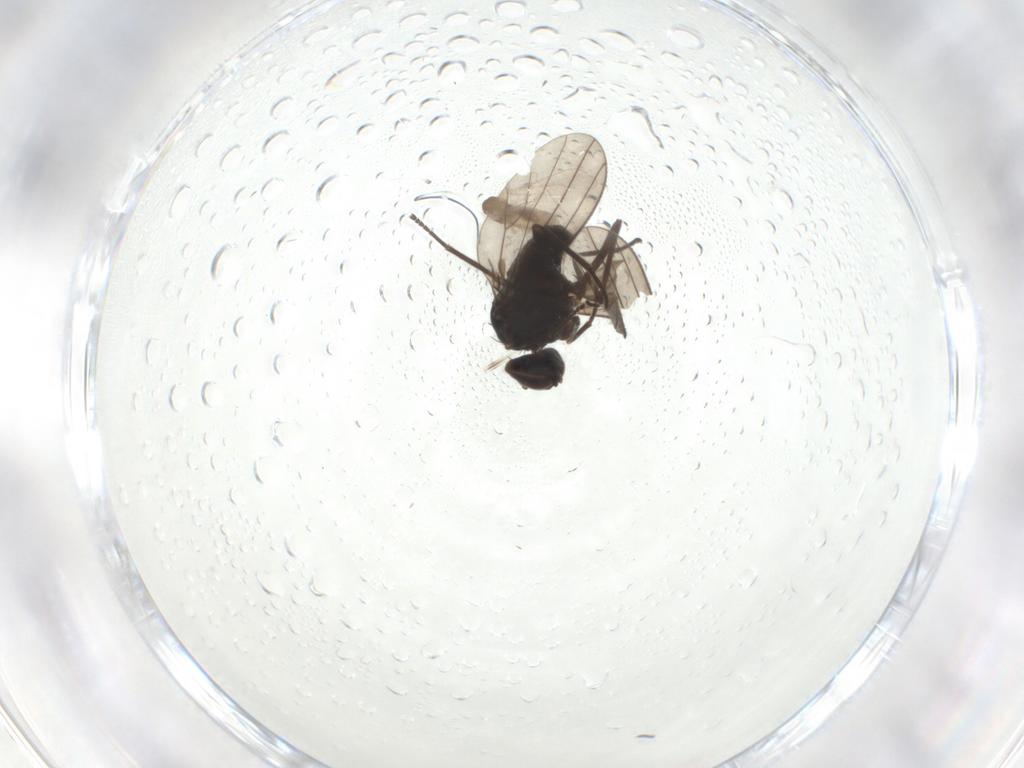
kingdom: Animalia
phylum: Arthropoda
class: Insecta
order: Diptera
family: Dolichopodidae
